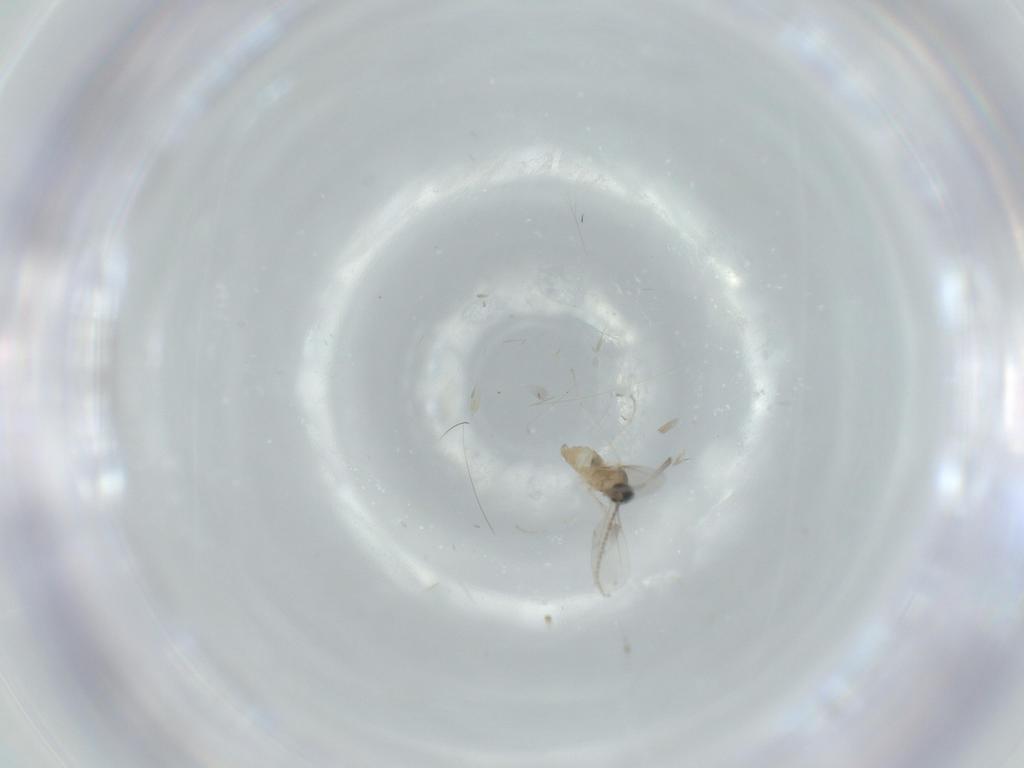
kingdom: Animalia
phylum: Arthropoda
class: Insecta
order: Diptera
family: Cecidomyiidae
